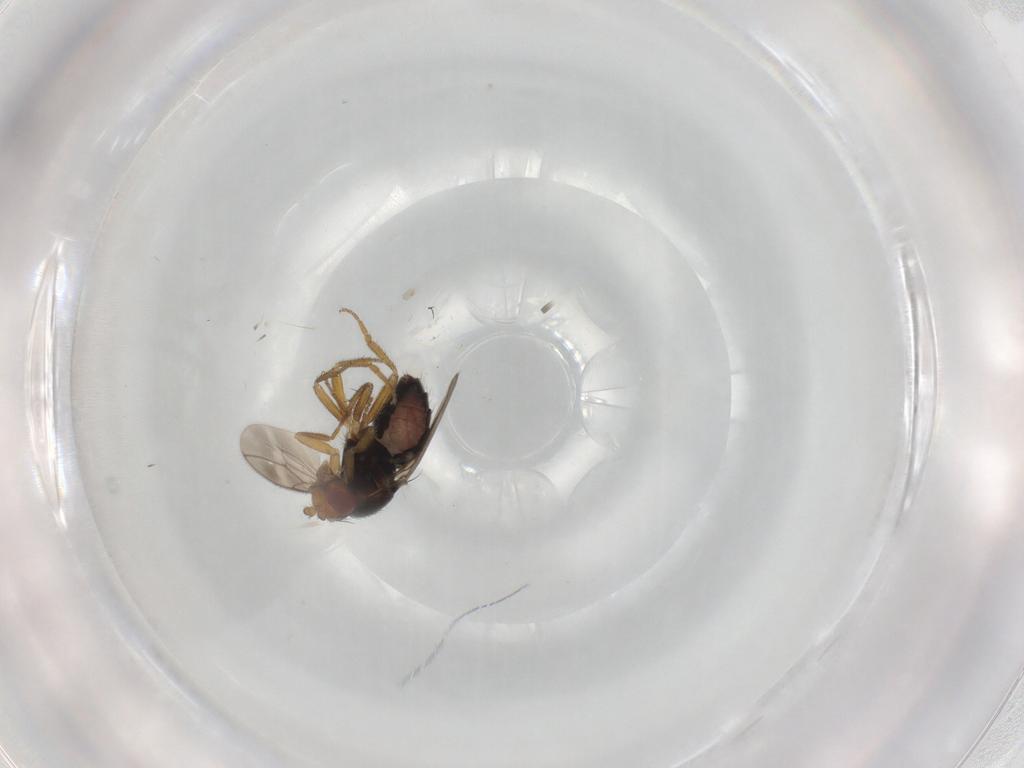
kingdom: Animalia
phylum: Arthropoda
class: Insecta
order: Diptera
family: Sphaeroceridae
